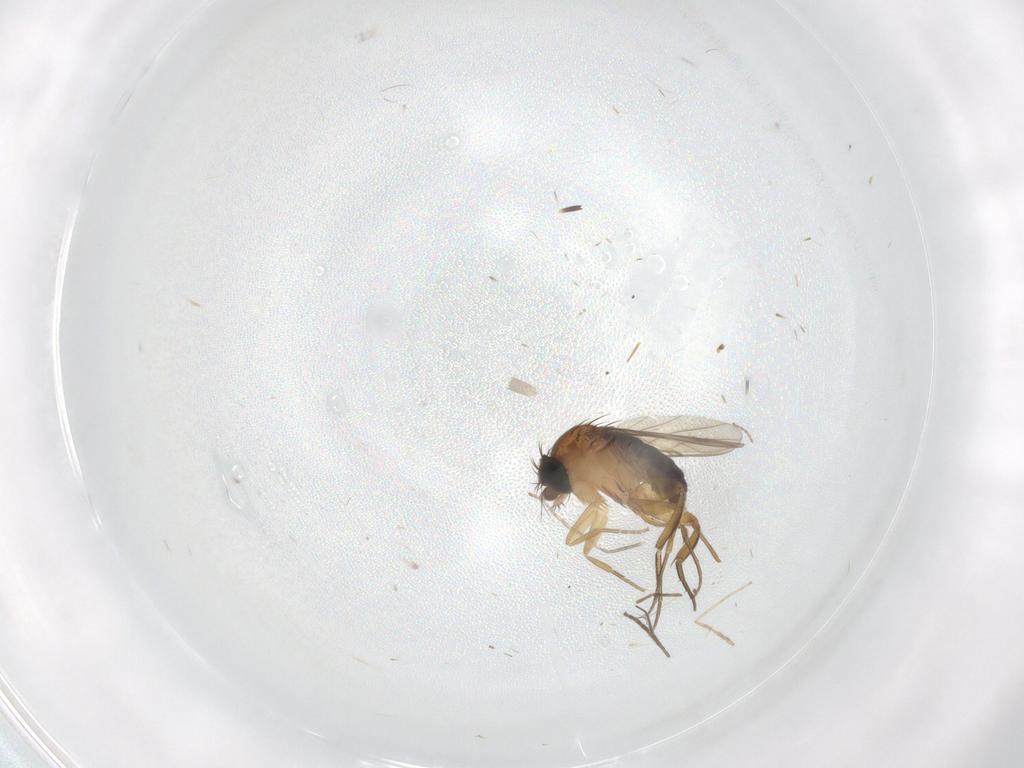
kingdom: Animalia
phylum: Arthropoda
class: Insecta
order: Diptera
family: Phoridae
